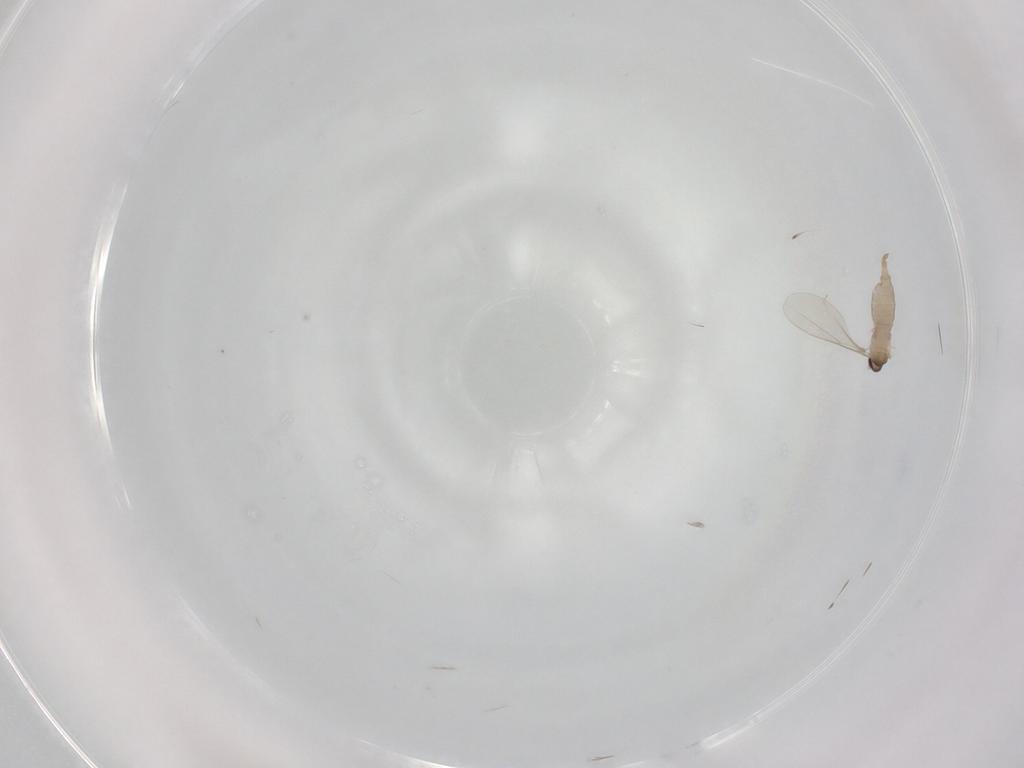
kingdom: Animalia
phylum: Arthropoda
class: Insecta
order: Diptera
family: Cecidomyiidae
